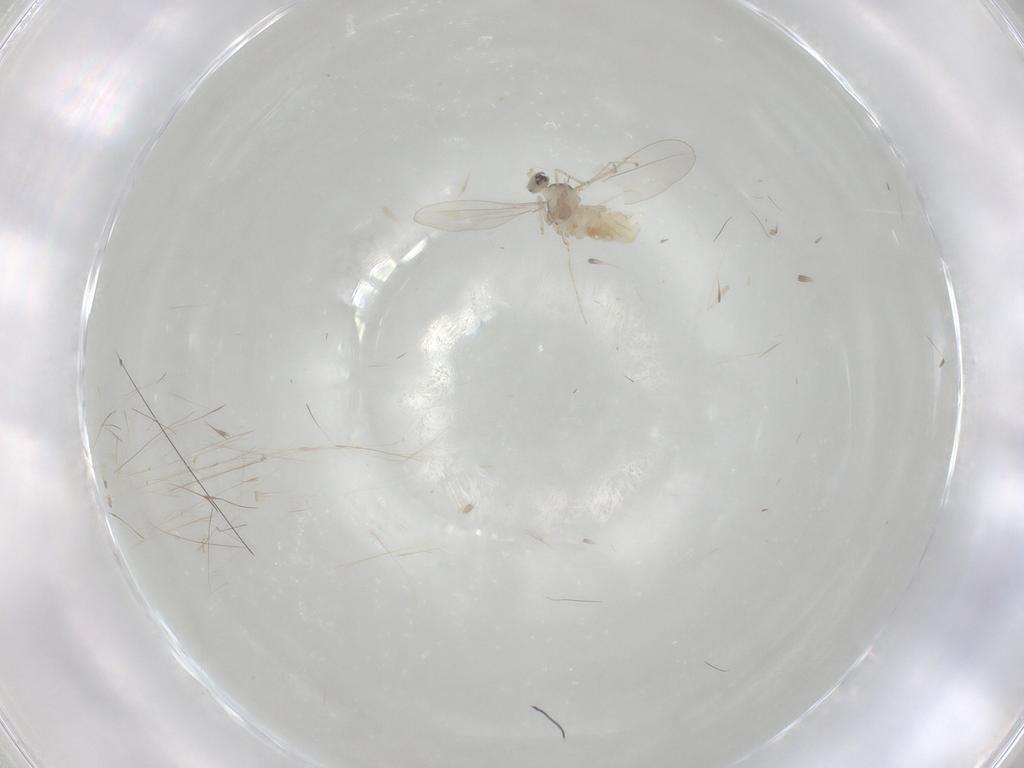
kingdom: Animalia
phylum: Arthropoda
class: Insecta
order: Diptera
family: Cecidomyiidae
